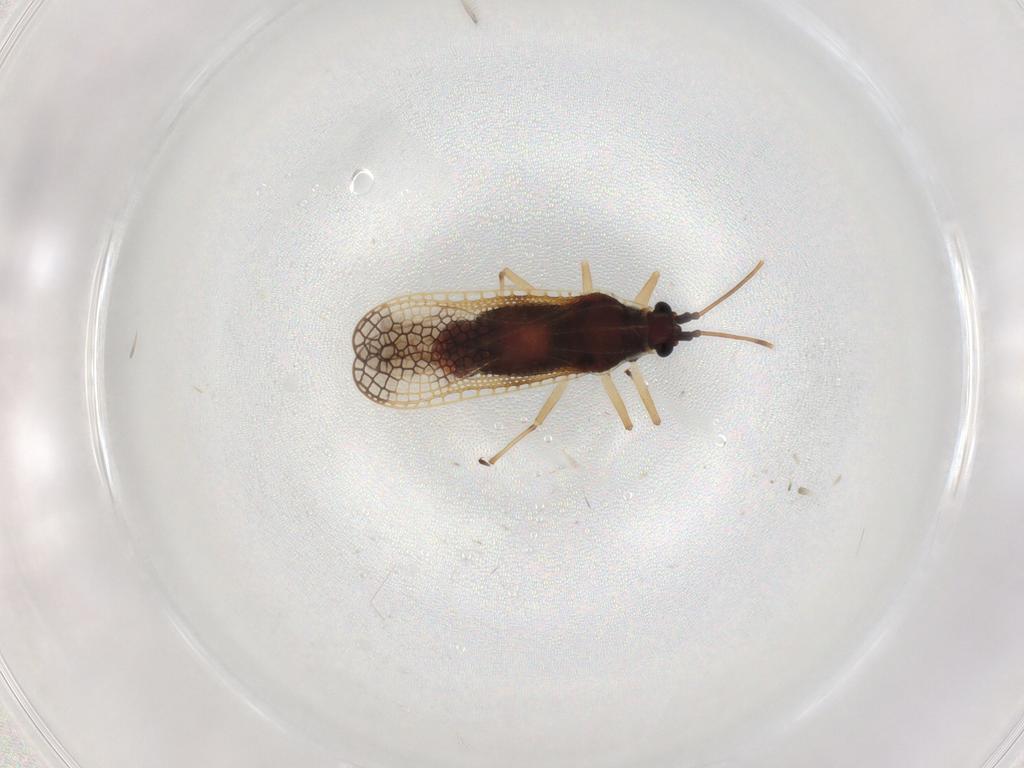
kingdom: Animalia
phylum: Arthropoda
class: Insecta
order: Hemiptera
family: Tingidae
